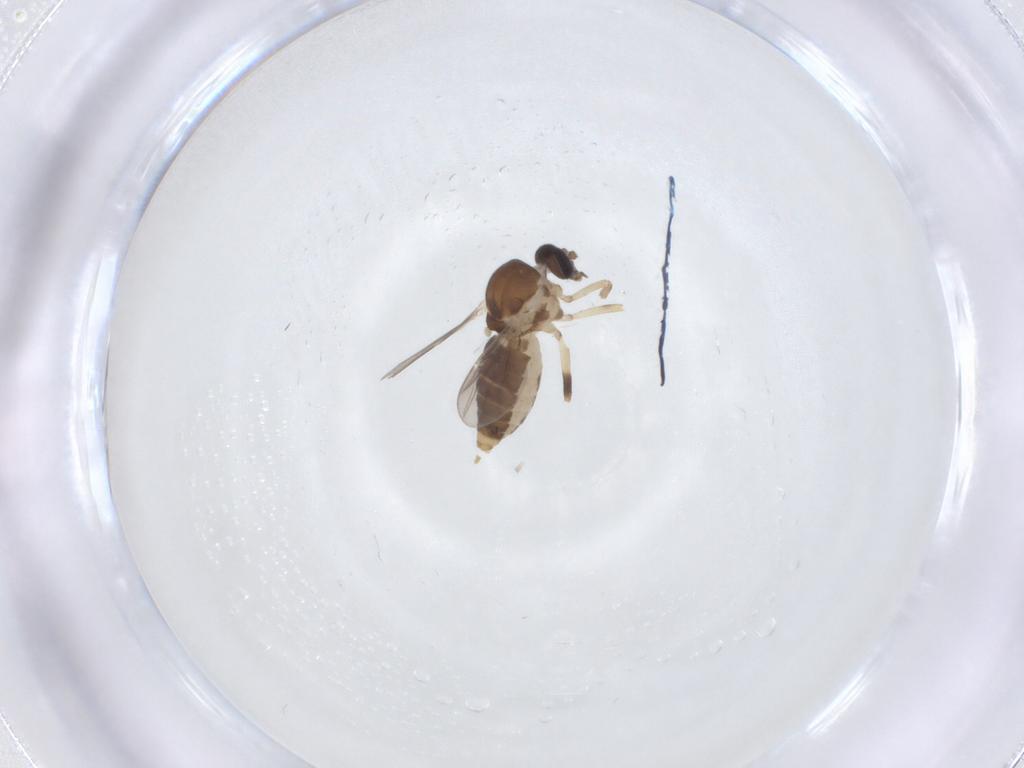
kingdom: Animalia
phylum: Arthropoda
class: Insecta
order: Diptera
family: Ceratopogonidae
